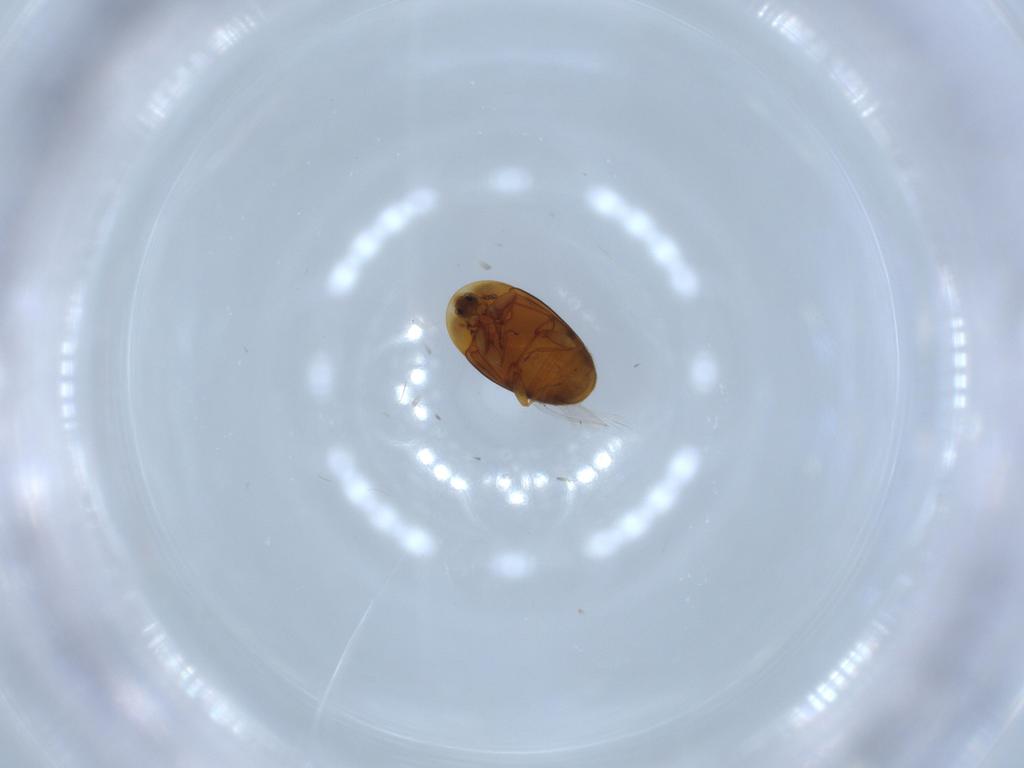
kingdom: Animalia
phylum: Arthropoda
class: Insecta
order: Coleoptera
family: Corylophidae
